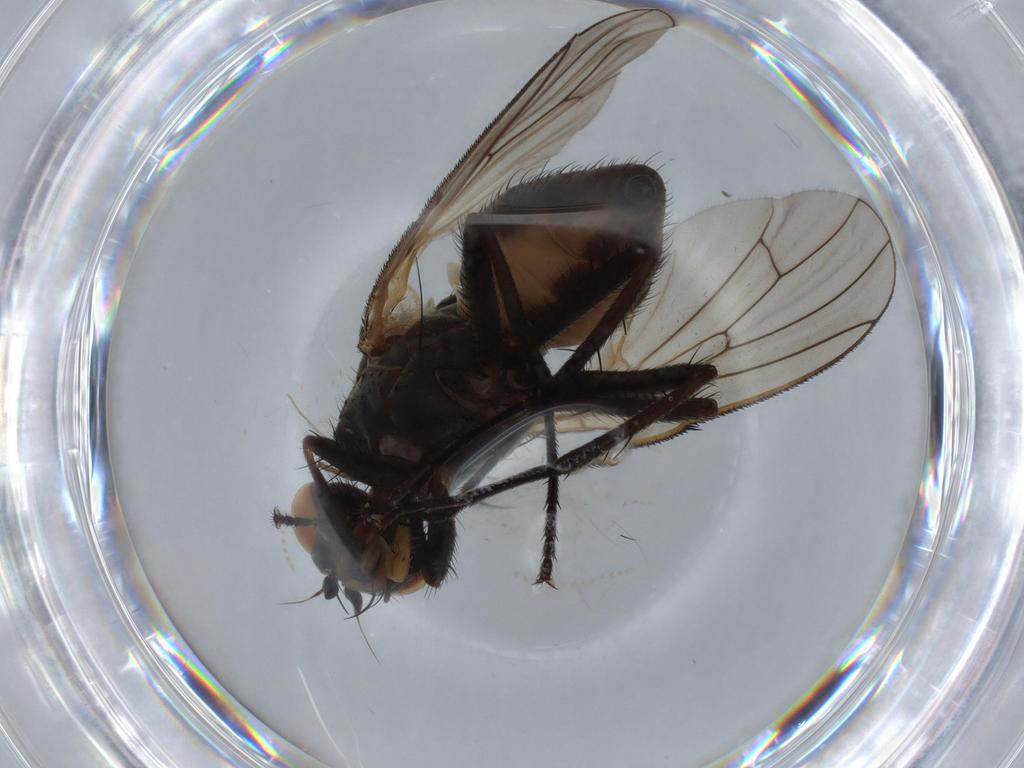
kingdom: Animalia
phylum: Arthropoda
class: Insecta
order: Diptera
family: Anthomyiidae
